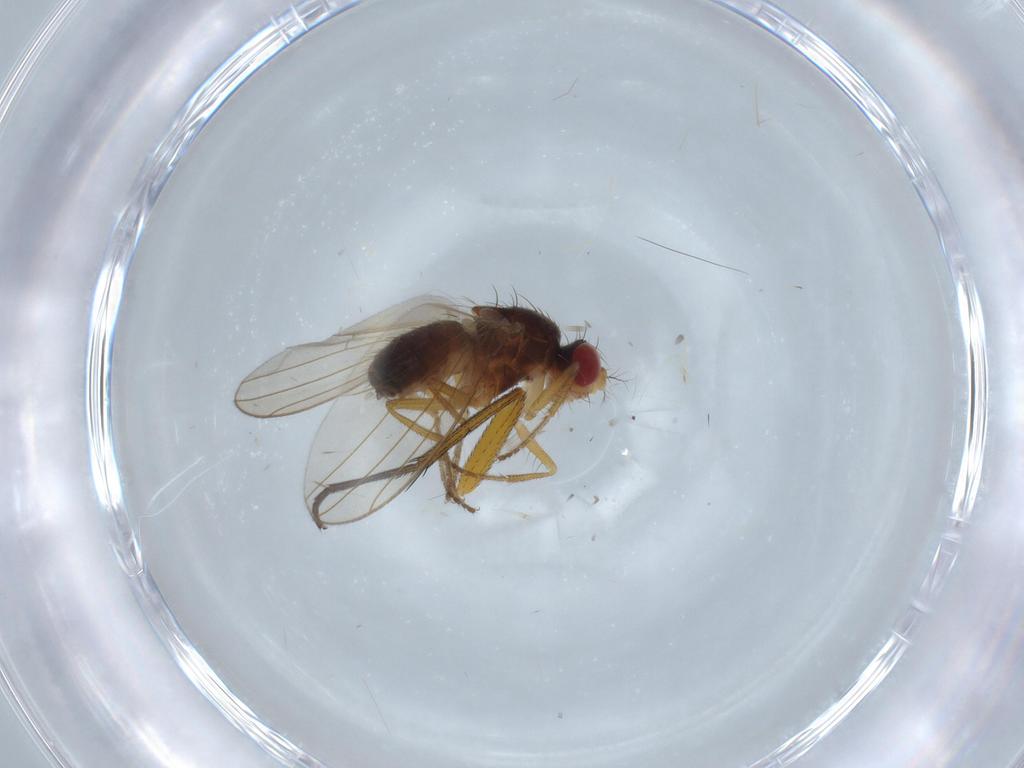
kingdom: Animalia
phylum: Arthropoda
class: Insecta
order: Diptera
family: Drosophilidae
